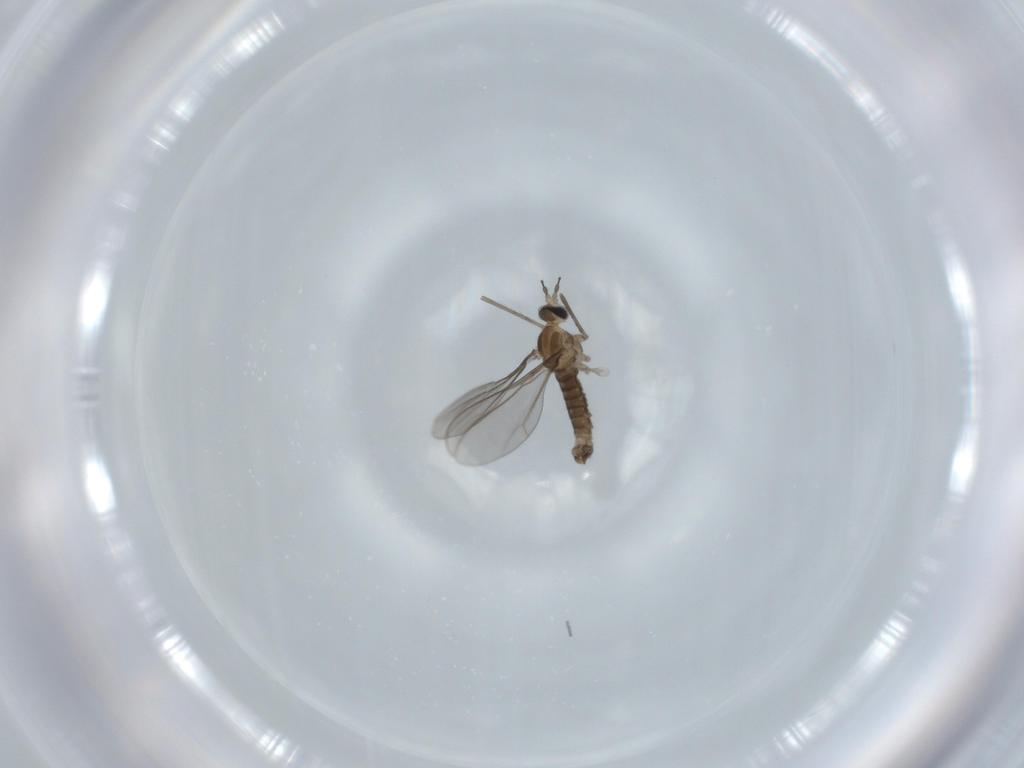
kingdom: Animalia
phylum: Arthropoda
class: Insecta
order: Diptera
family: Cecidomyiidae
